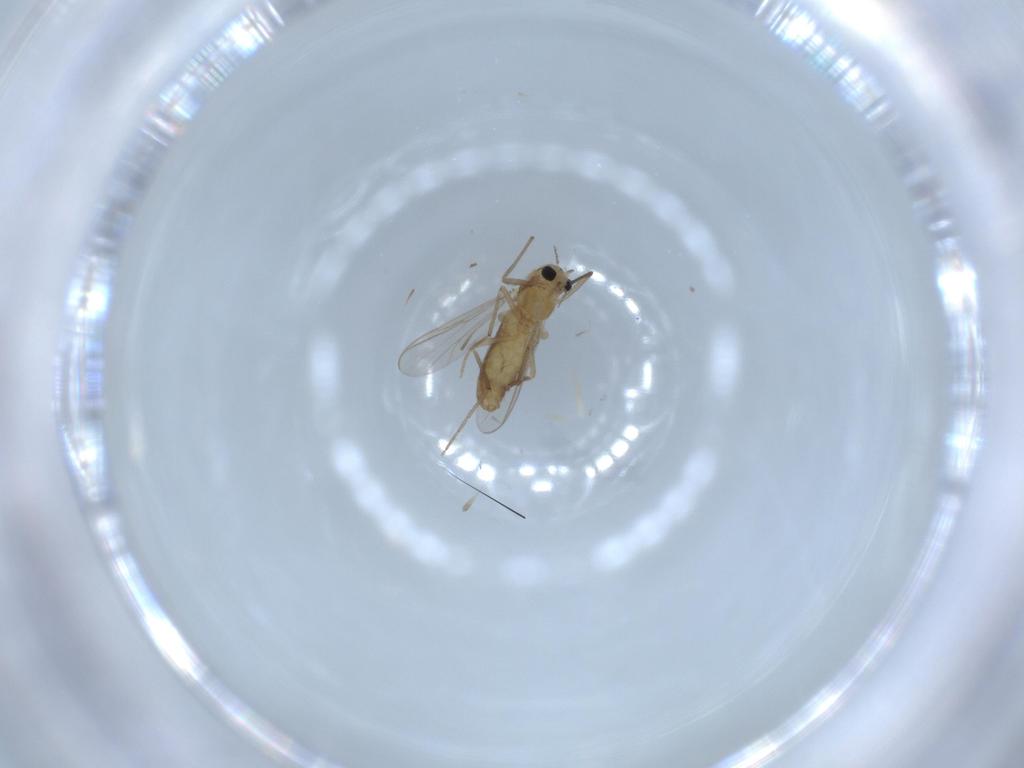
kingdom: Animalia
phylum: Arthropoda
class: Insecta
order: Diptera
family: Chironomidae
